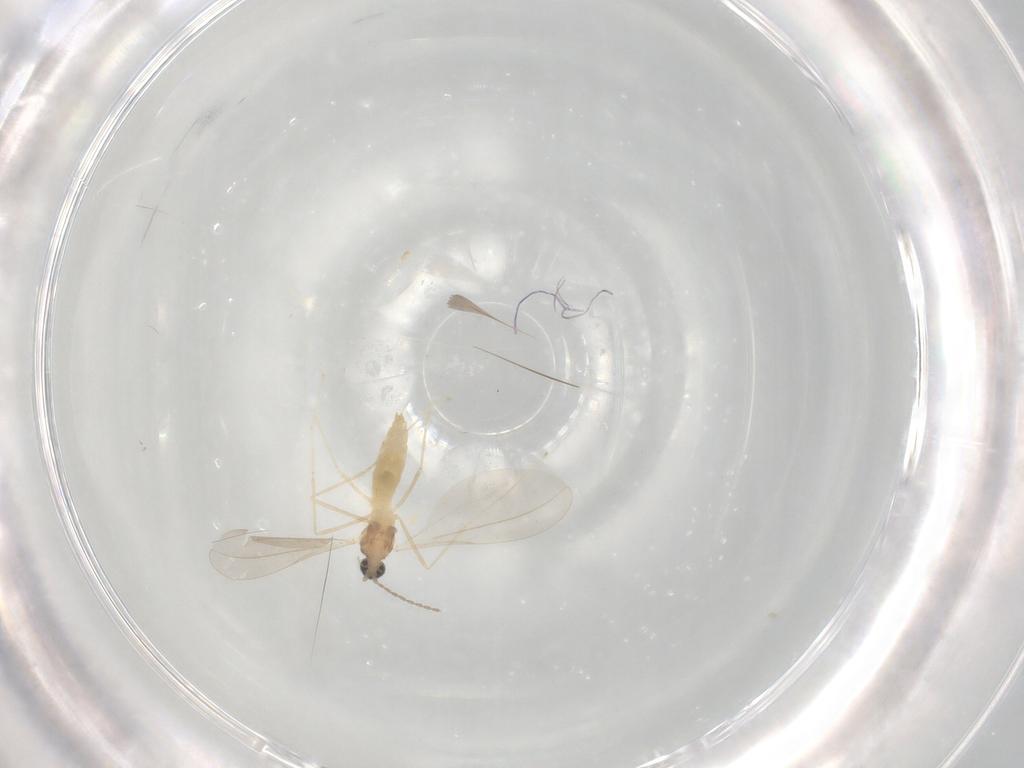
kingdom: Animalia
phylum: Arthropoda
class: Insecta
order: Diptera
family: Cecidomyiidae
